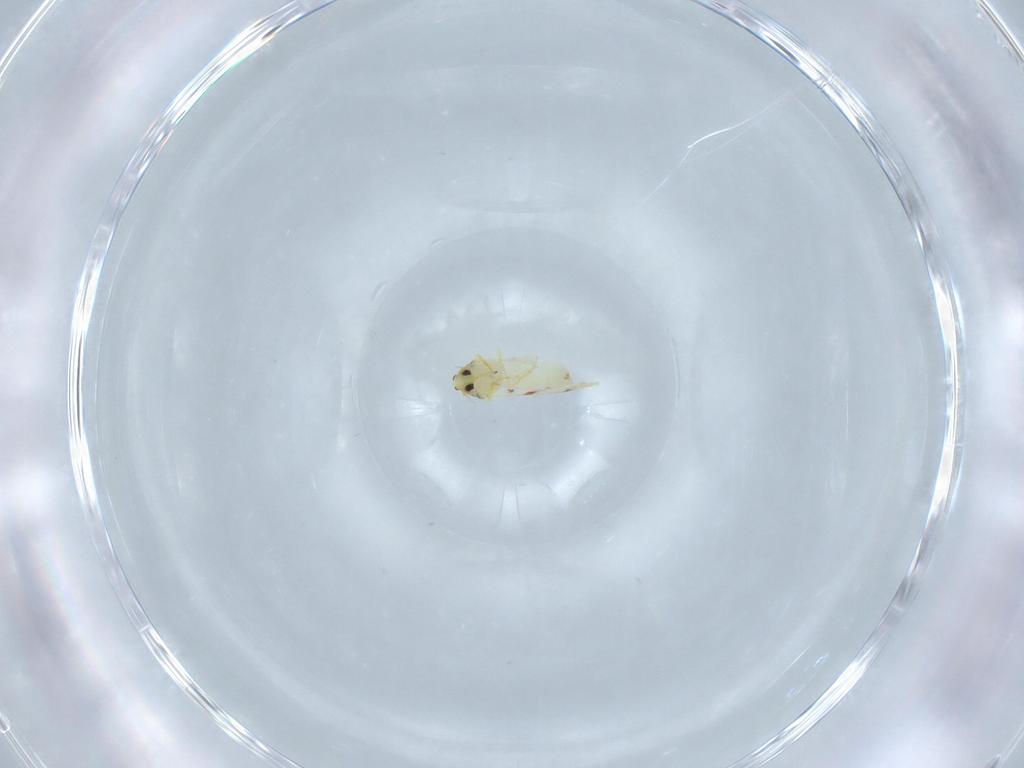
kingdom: Animalia
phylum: Arthropoda
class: Insecta
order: Hemiptera
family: Aleyrodidae
